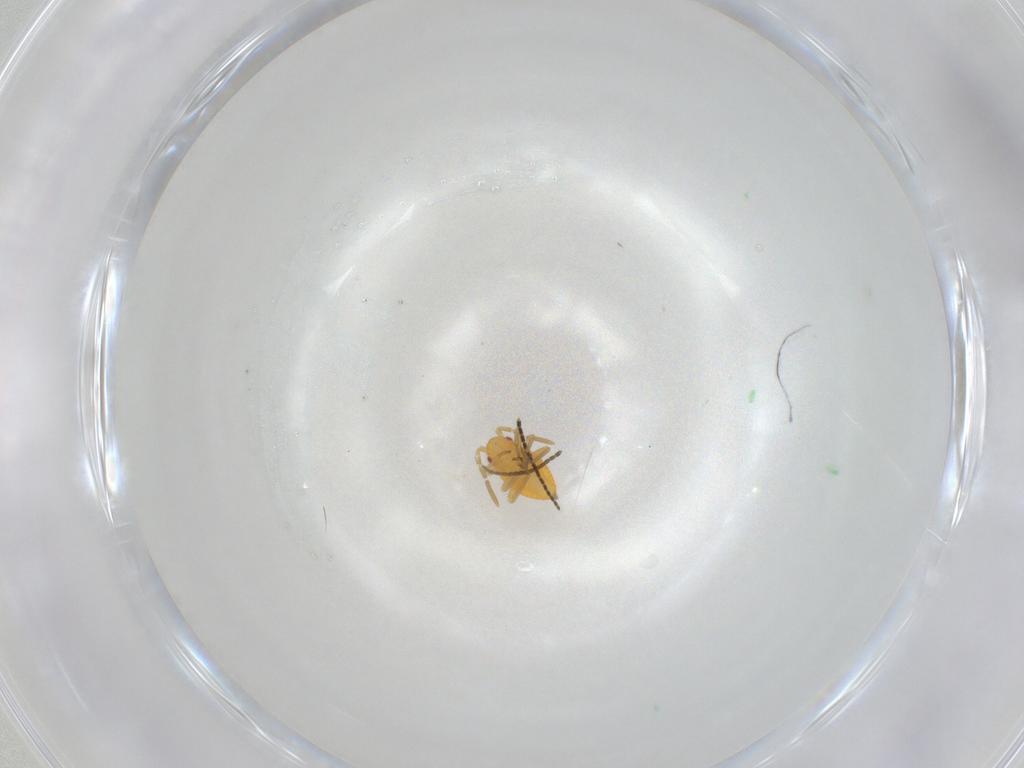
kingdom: Animalia
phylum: Arthropoda
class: Insecta
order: Hemiptera
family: Miridae
